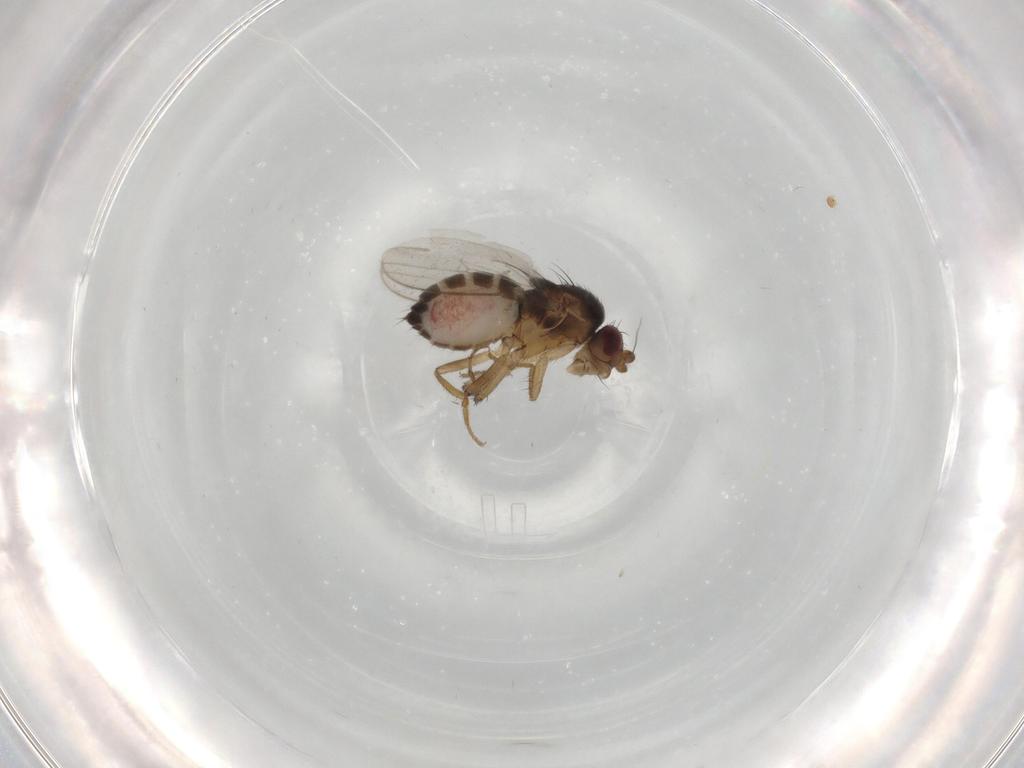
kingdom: Animalia
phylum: Arthropoda
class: Insecta
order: Diptera
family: Sphaeroceridae
